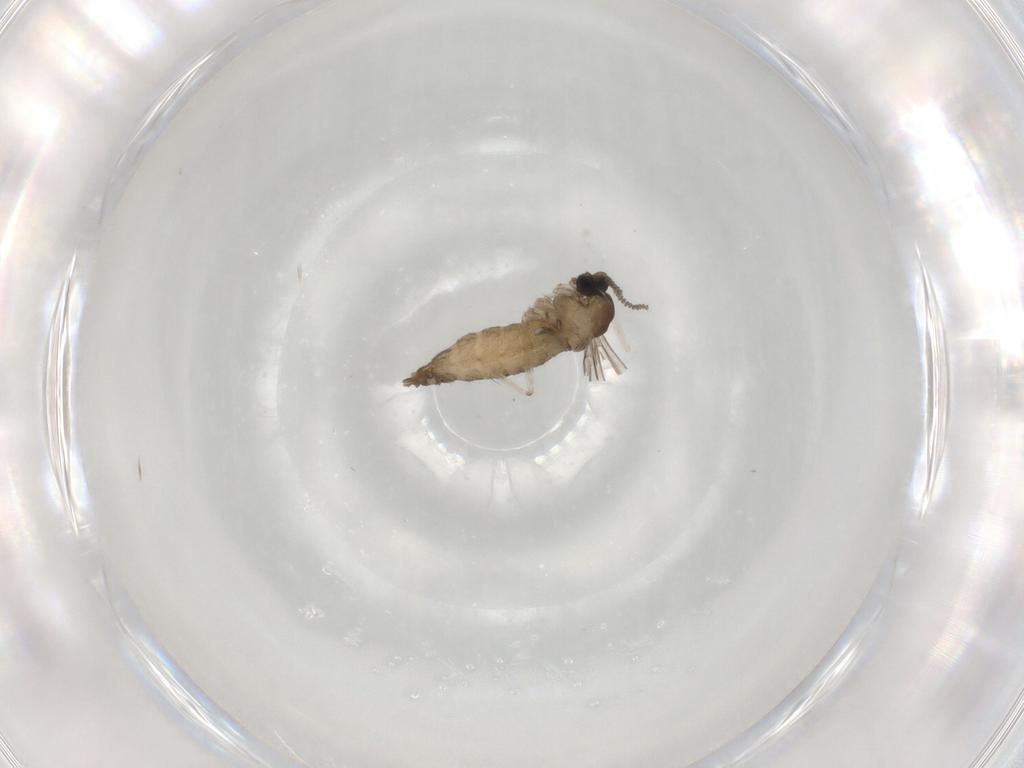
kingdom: Animalia
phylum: Arthropoda
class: Insecta
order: Diptera
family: Cecidomyiidae
